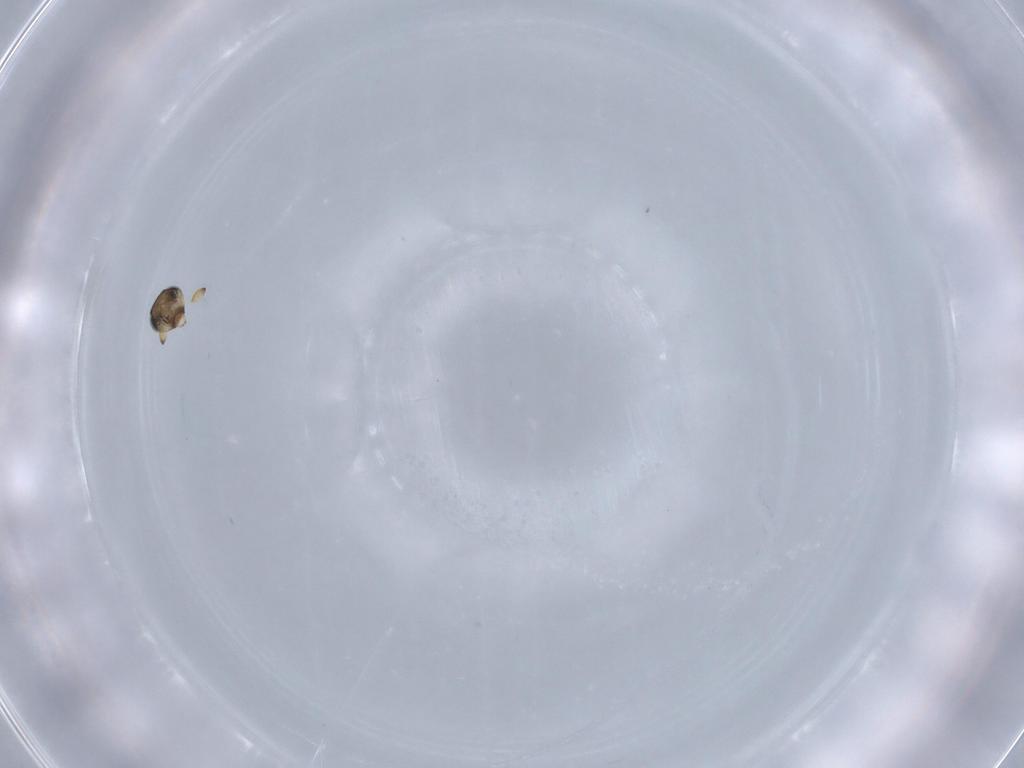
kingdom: Animalia
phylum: Arthropoda
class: Insecta
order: Hymenoptera
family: Scelionidae
